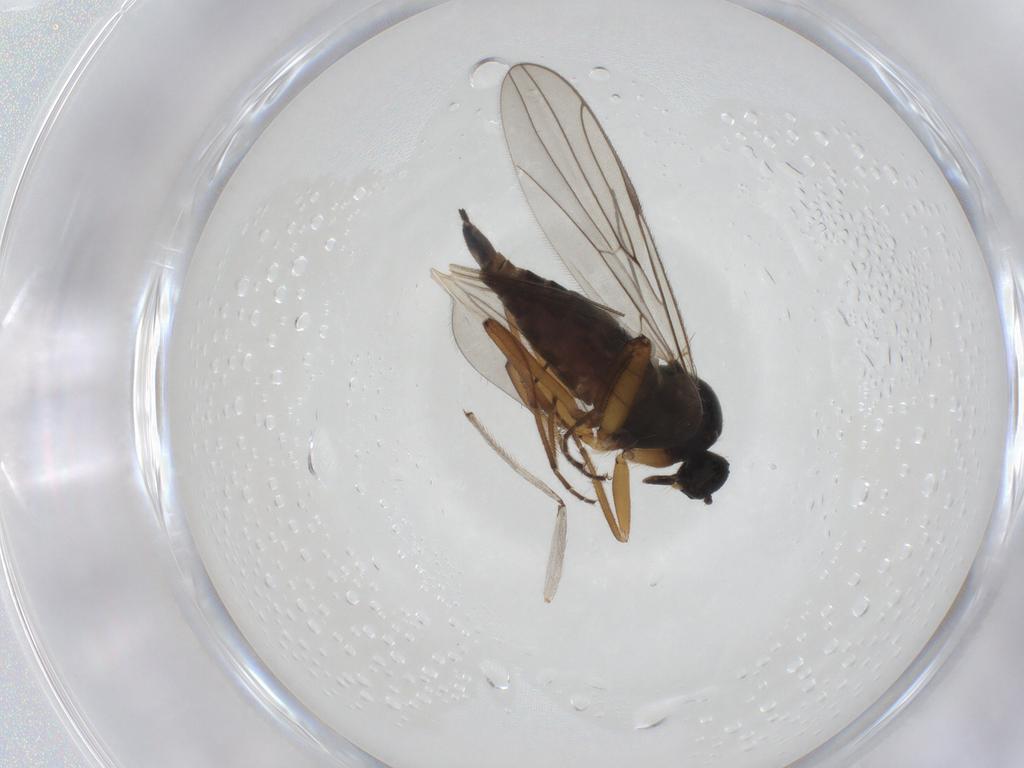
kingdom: Animalia
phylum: Arthropoda
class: Insecta
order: Diptera
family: Hybotidae
